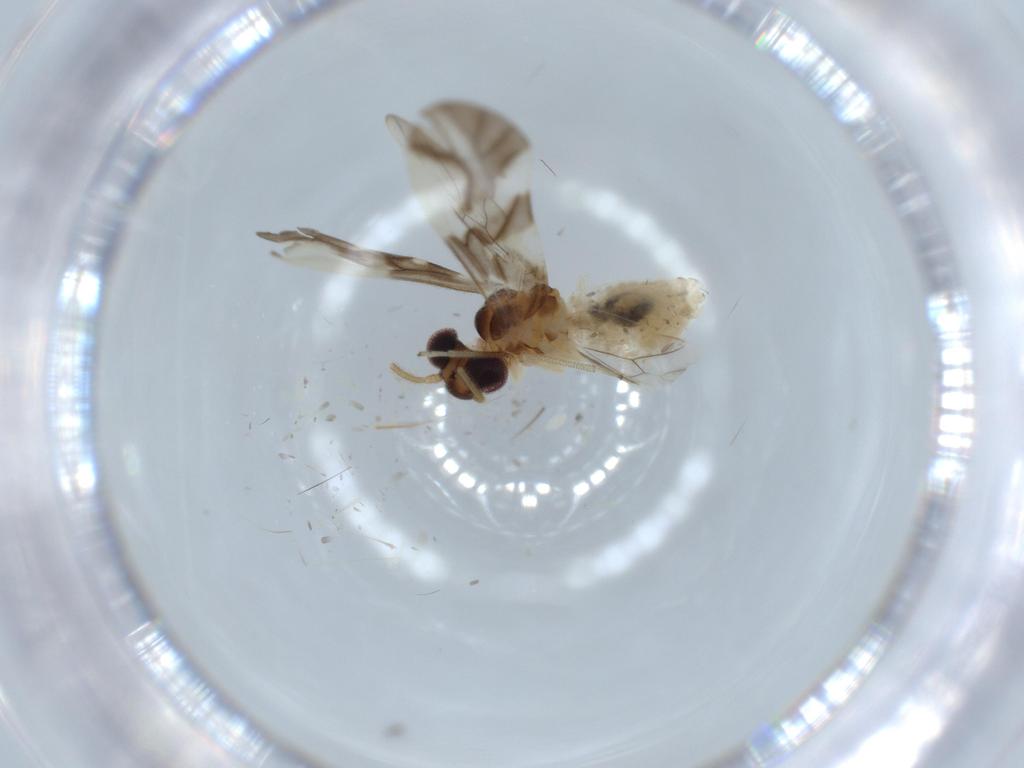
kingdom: Animalia
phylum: Arthropoda
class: Insecta
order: Psocodea
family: Caeciliusidae
